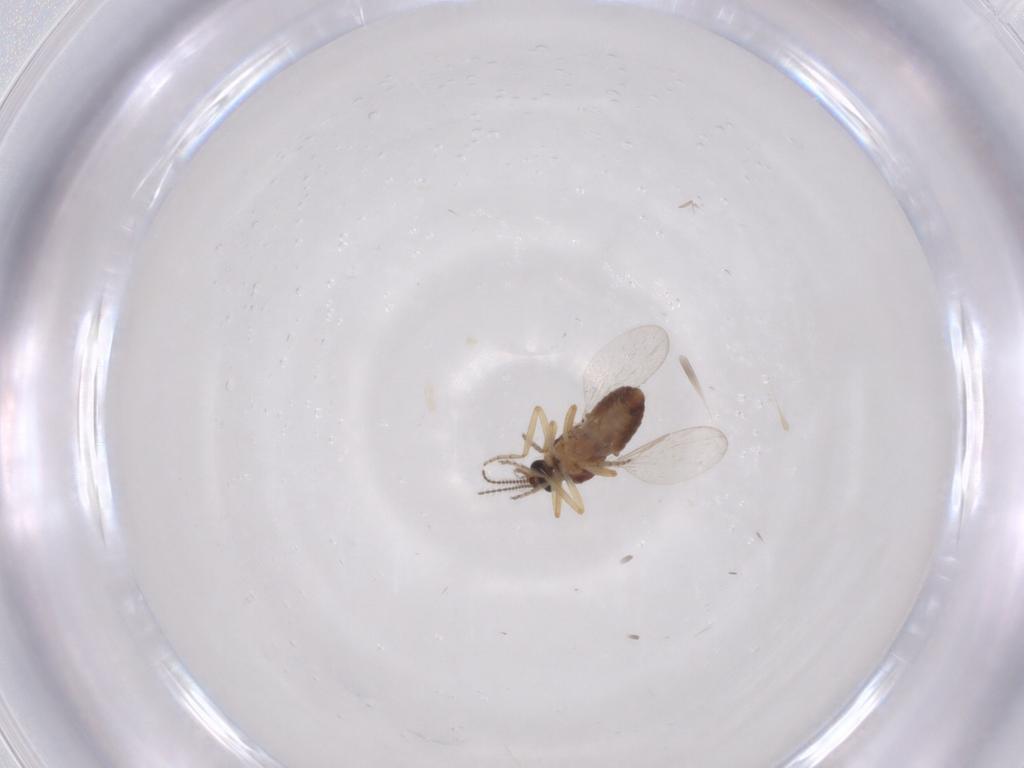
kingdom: Animalia
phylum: Arthropoda
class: Insecta
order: Diptera
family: Ceratopogonidae
